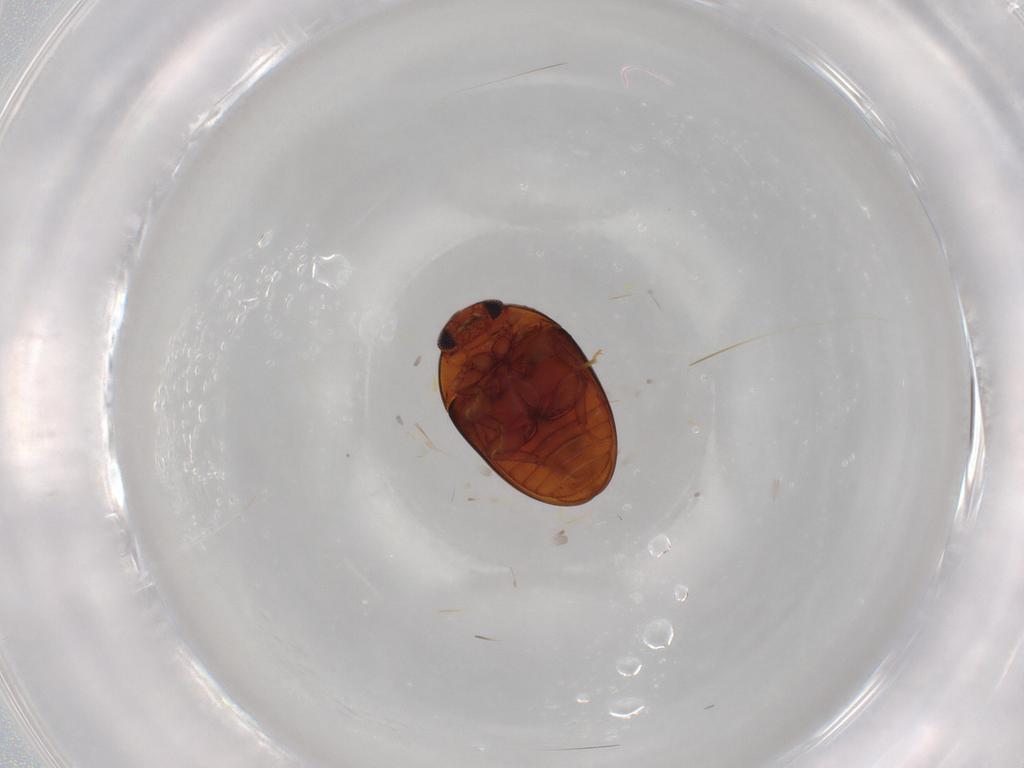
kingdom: Animalia
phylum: Arthropoda
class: Insecta
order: Coleoptera
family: Phalacridae
